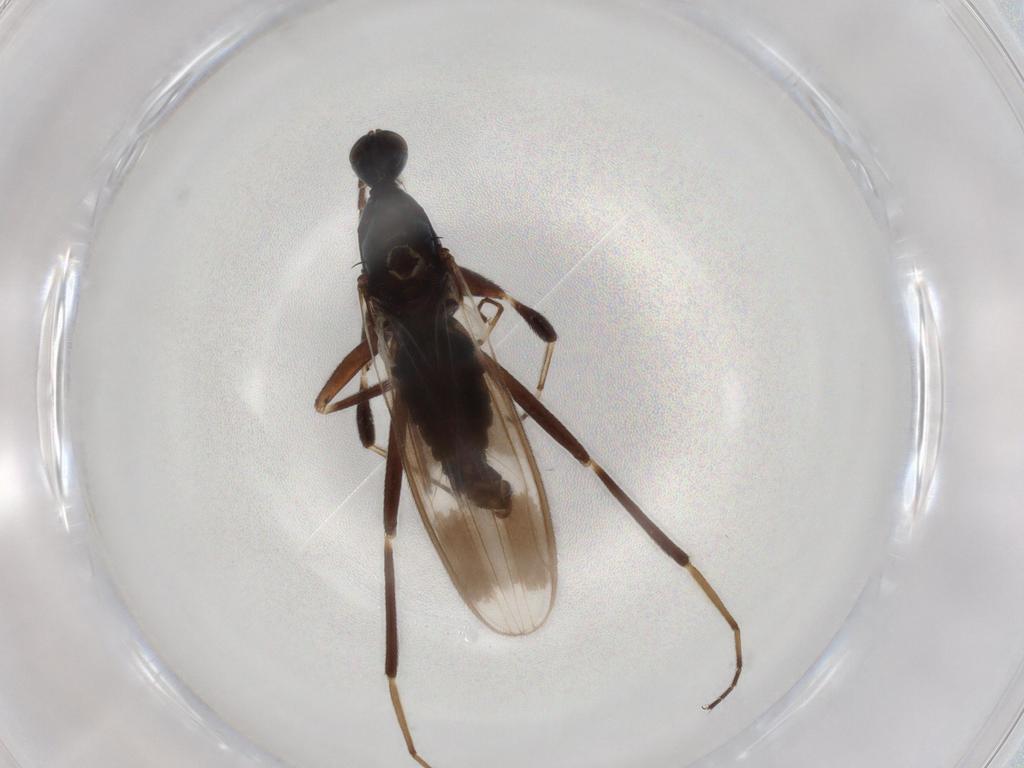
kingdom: Animalia
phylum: Arthropoda
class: Insecta
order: Diptera
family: Hybotidae
